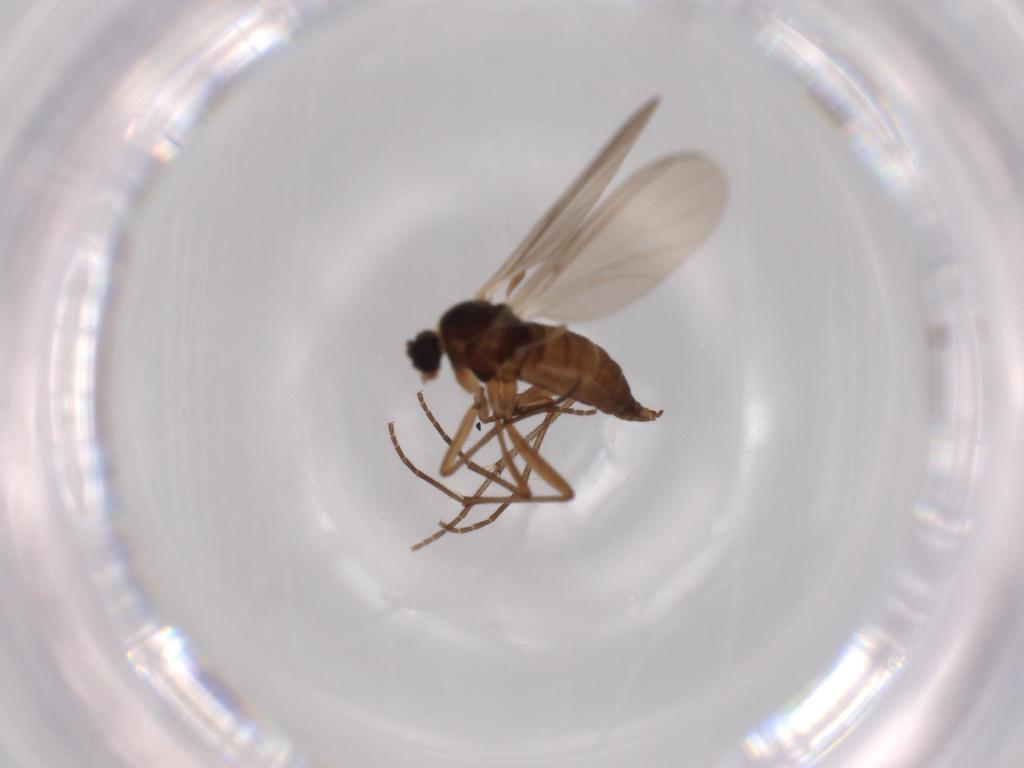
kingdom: Animalia
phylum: Arthropoda
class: Insecta
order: Diptera
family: Sciaridae
